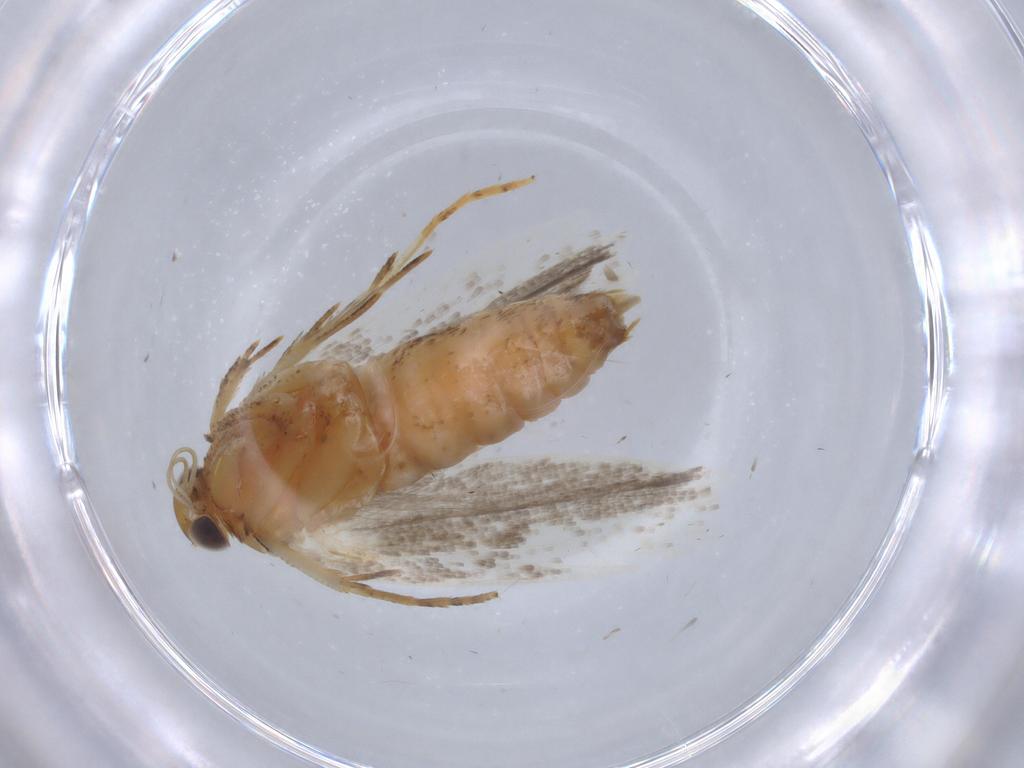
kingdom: Animalia
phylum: Arthropoda
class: Insecta
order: Lepidoptera
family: Gelechiidae
